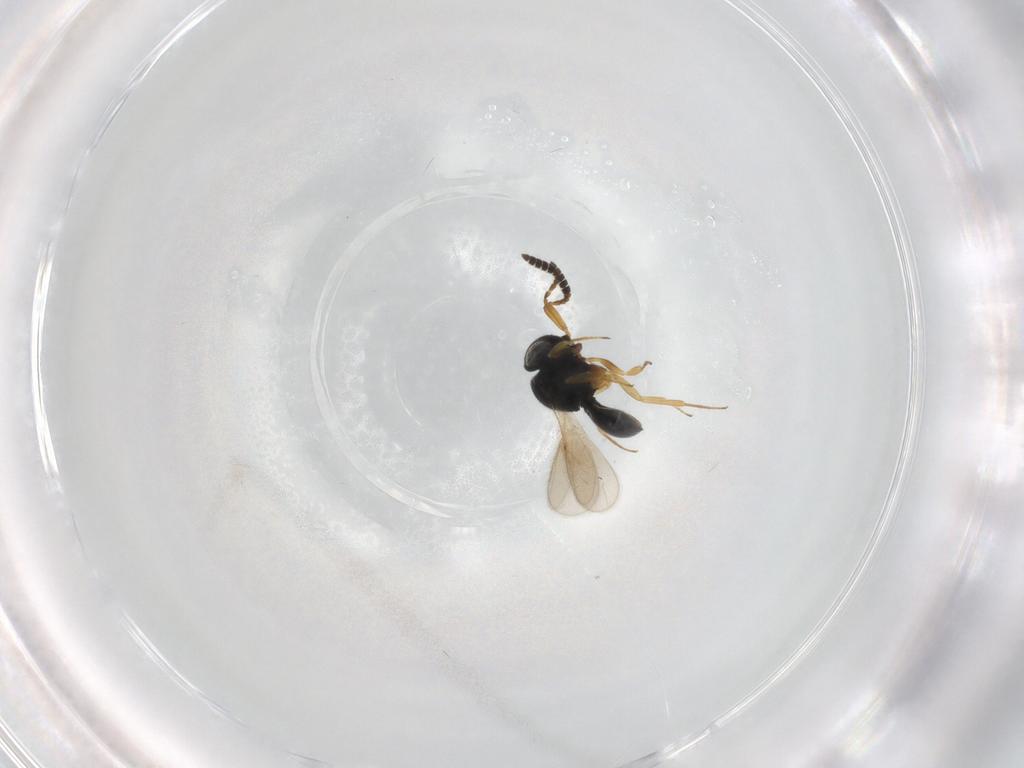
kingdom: Animalia
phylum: Arthropoda
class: Insecta
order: Hymenoptera
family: Scelionidae
